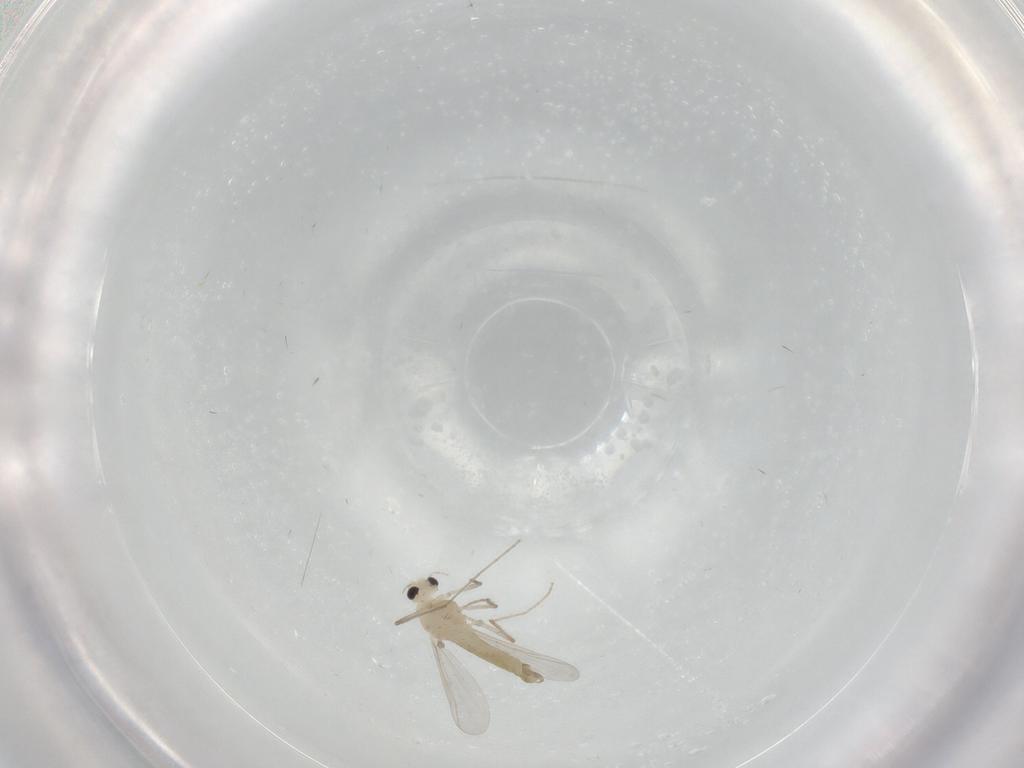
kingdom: Animalia
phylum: Arthropoda
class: Insecta
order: Diptera
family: Chironomidae
